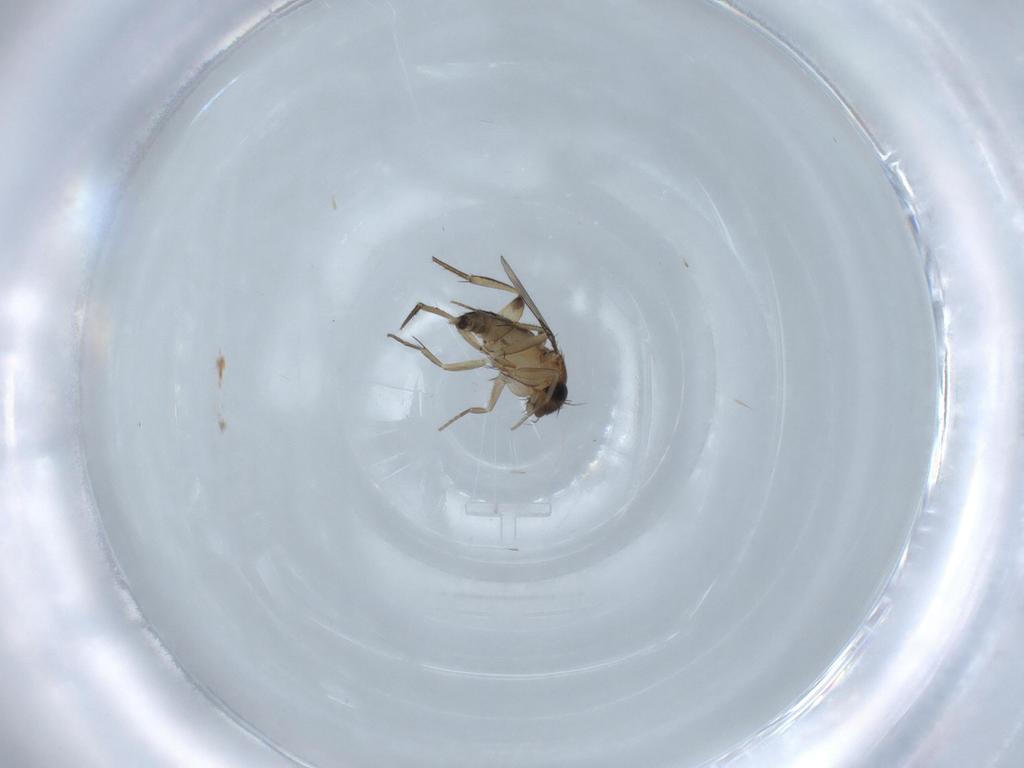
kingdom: Animalia
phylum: Arthropoda
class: Insecta
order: Diptera
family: Phoridae
